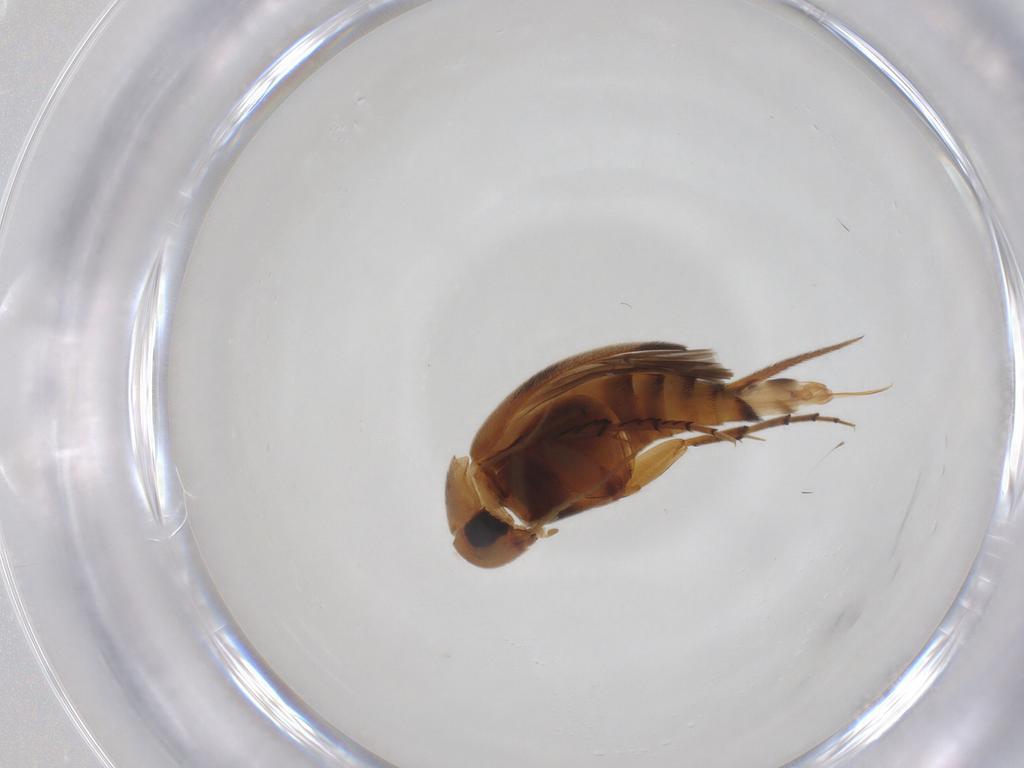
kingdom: Animalia
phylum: Arthropoda
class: Insecta
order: Coleoptera
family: Mordellidae
